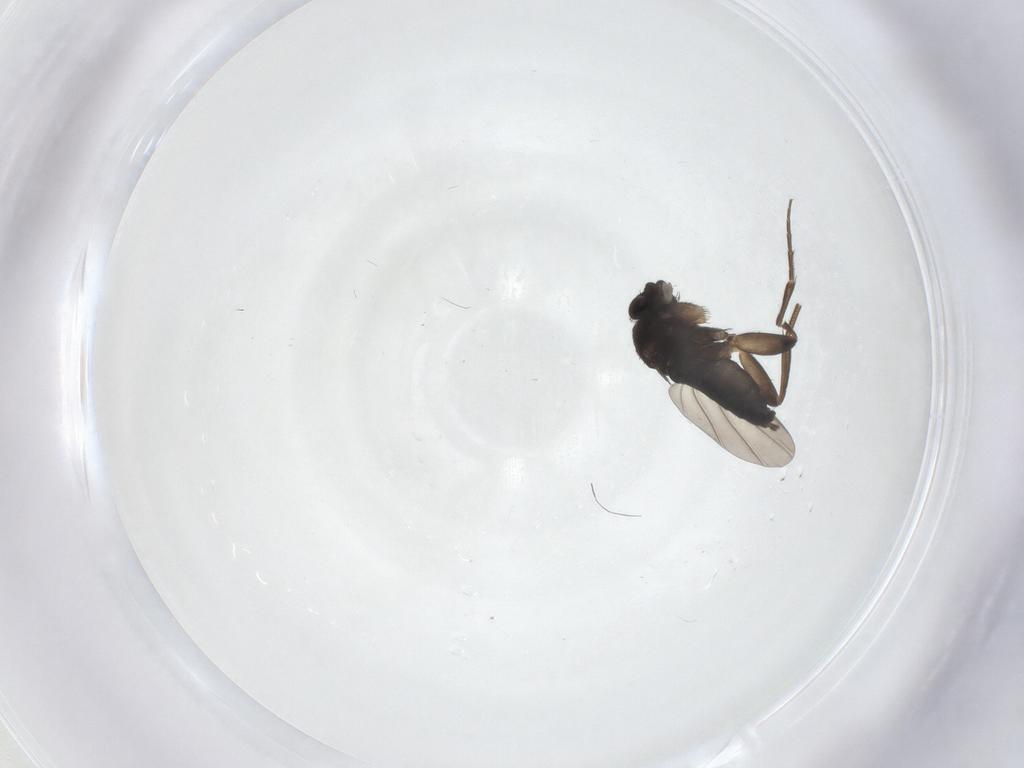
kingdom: Animalia
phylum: Arthropoda
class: Insecta
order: Diptera
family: Phoridae
